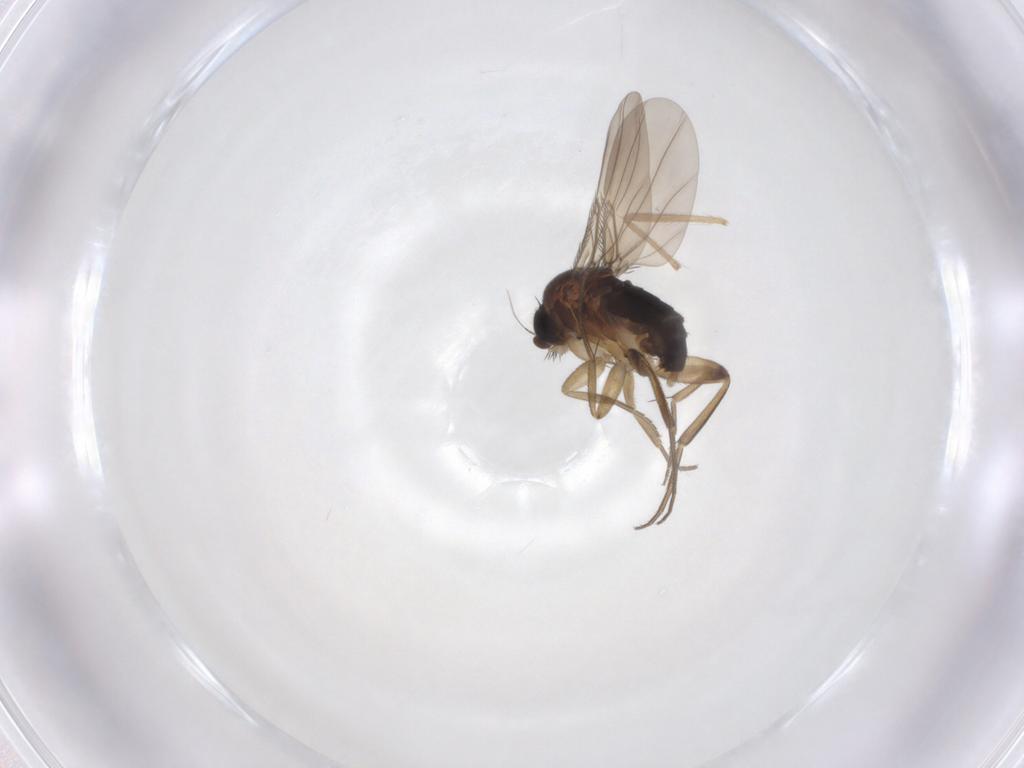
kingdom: Animalia
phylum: Arthropoda
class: Insecta
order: Diptera
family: Phoridae
